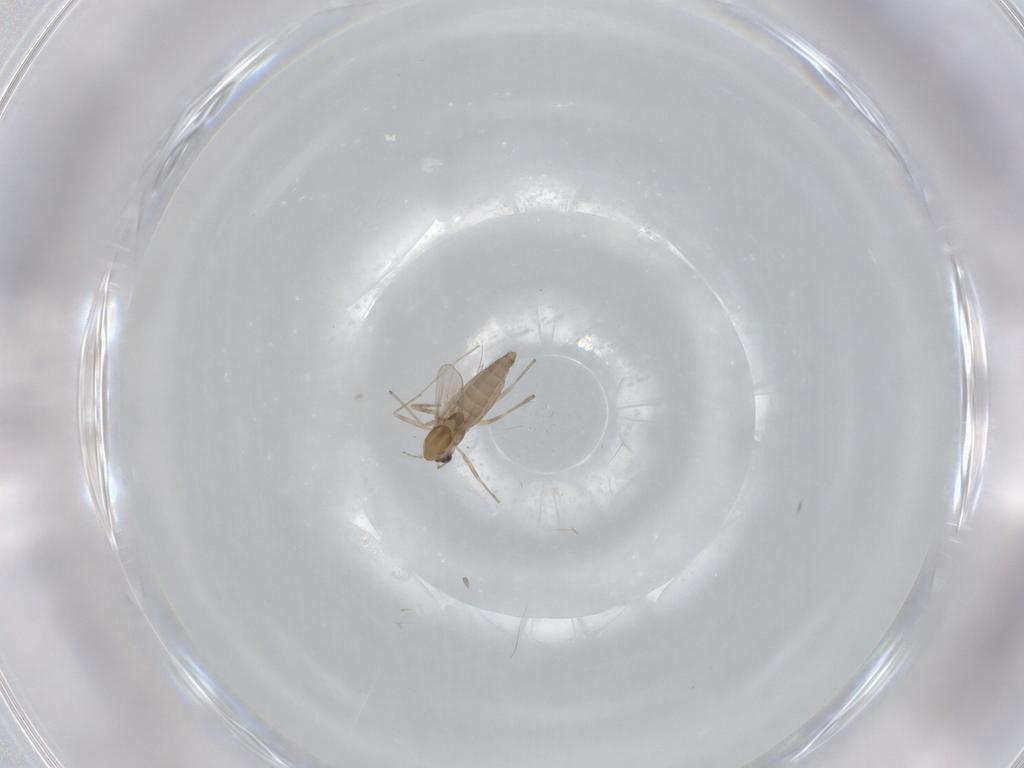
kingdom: Animalia
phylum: Arthropoda
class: Insecta
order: Diptera
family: Chironomidae
